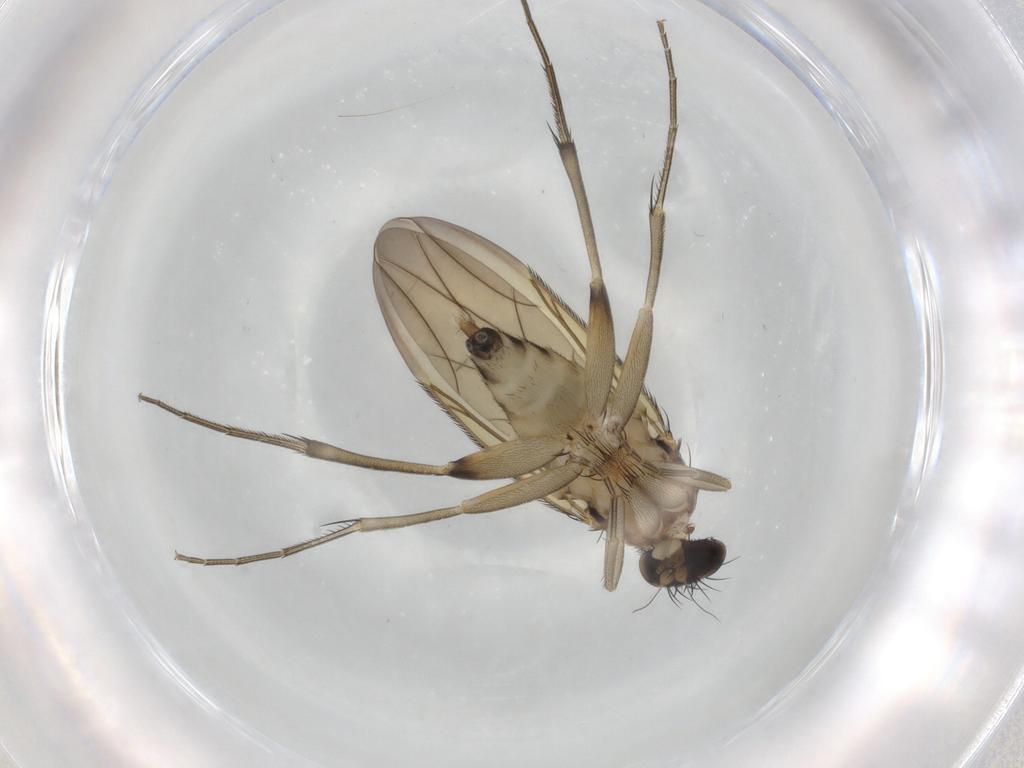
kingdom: Animalia
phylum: Arthropoda
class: Insecta
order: Diptera
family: Phoridae
